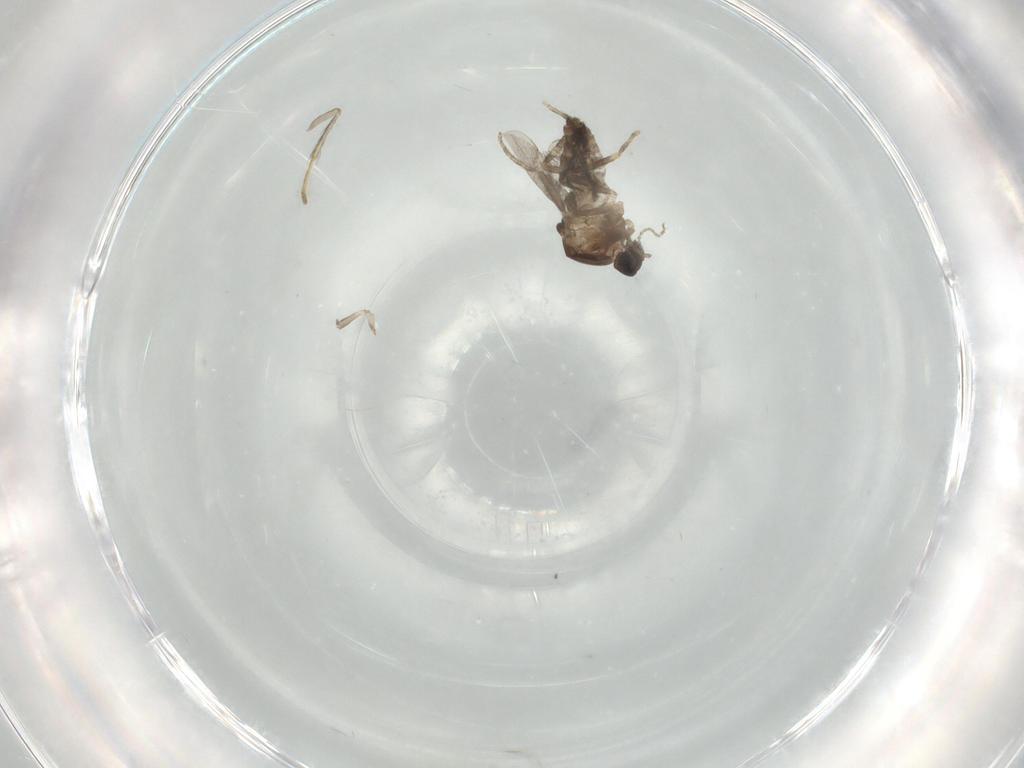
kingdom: Animalia
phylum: Arthropoda
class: Insecta
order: Diptera
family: Psychodidae
